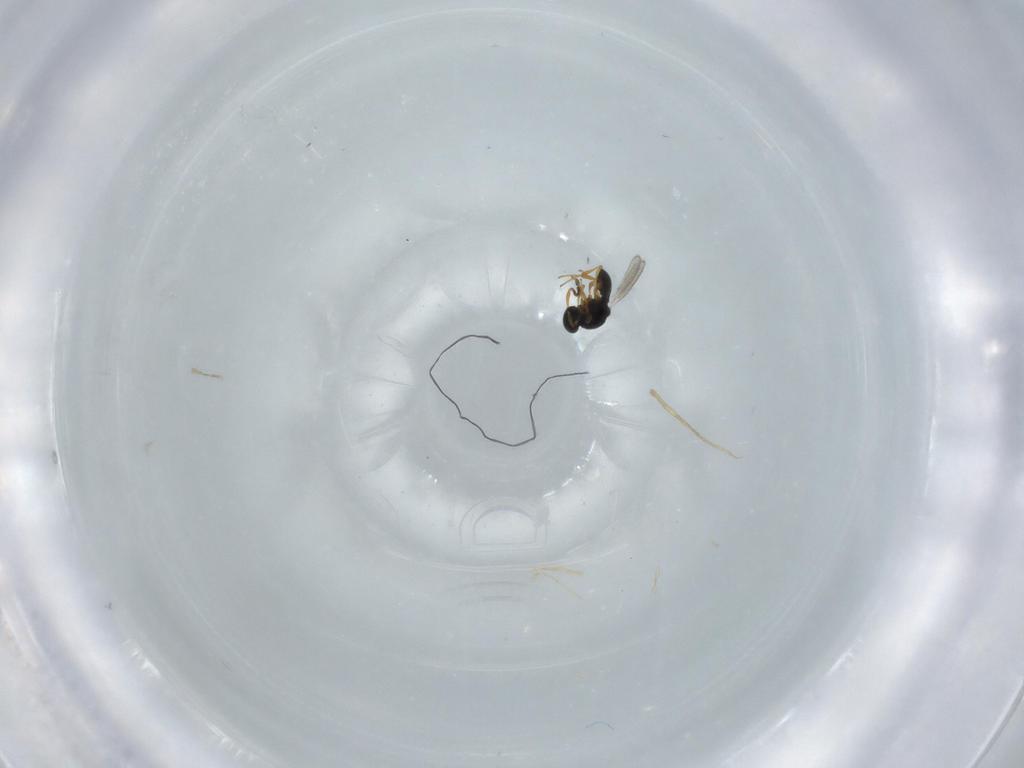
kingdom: Animalia
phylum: Arthropoda
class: Insecta
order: Hymenoptera
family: Platygastridae
